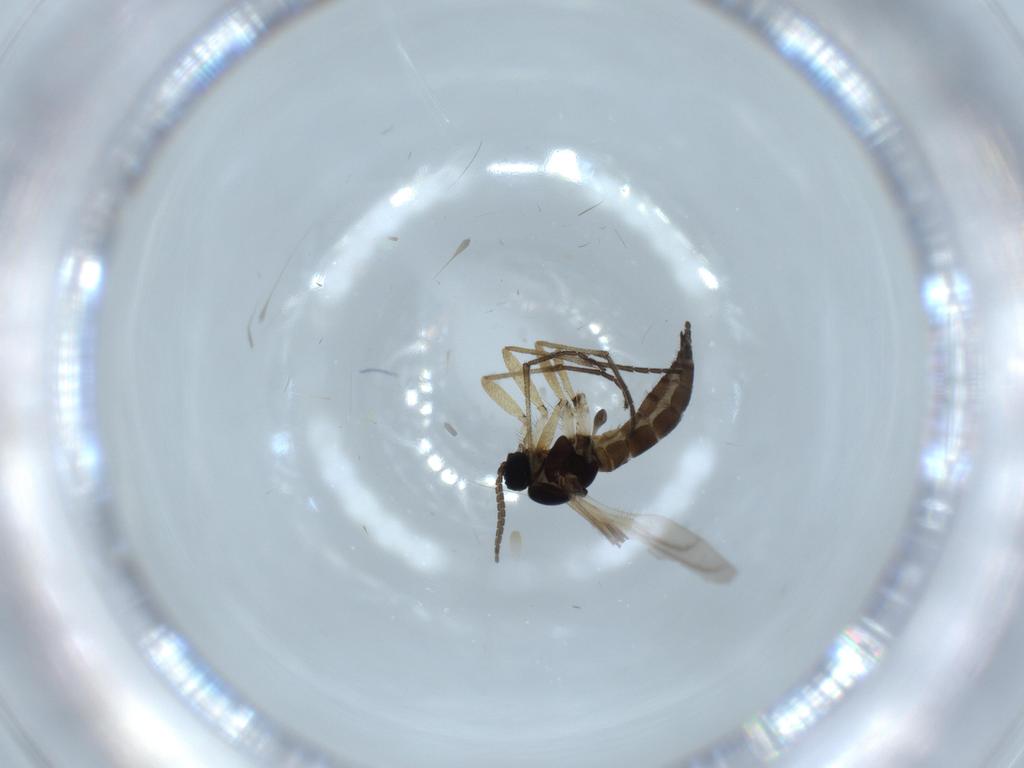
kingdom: Animalia
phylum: Arthropoda
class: Insecta
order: Diptera
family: Sciaridae
